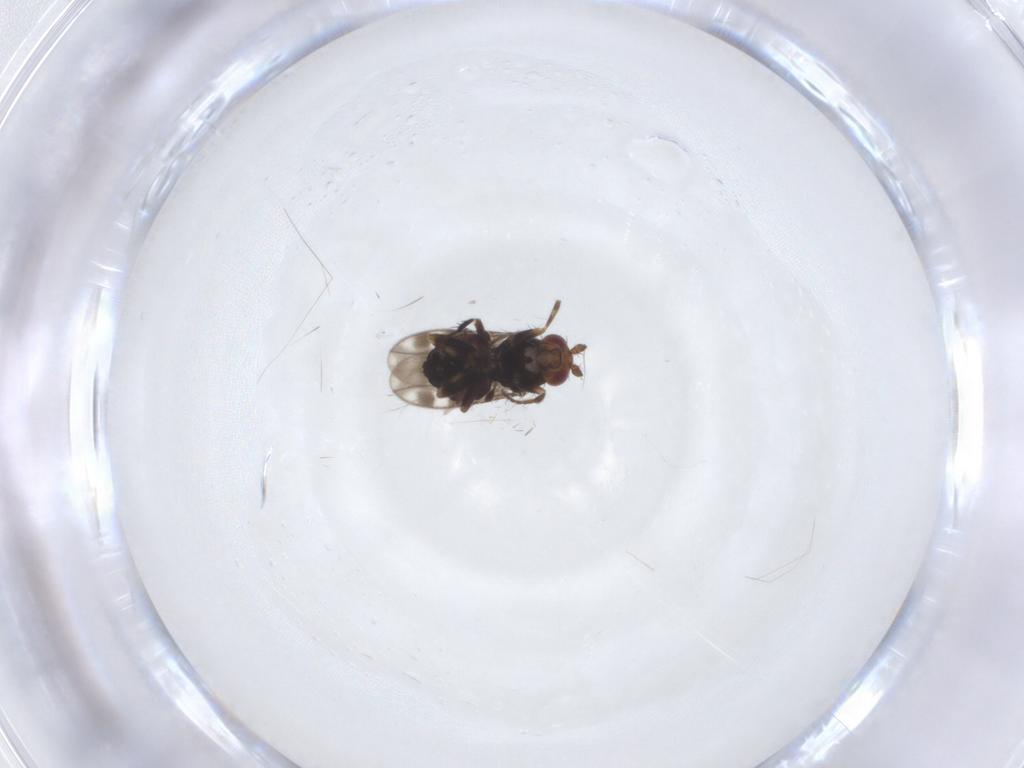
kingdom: Animalia
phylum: Arthropoda
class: Insecta
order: Diptera
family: Sphaeroceridae
